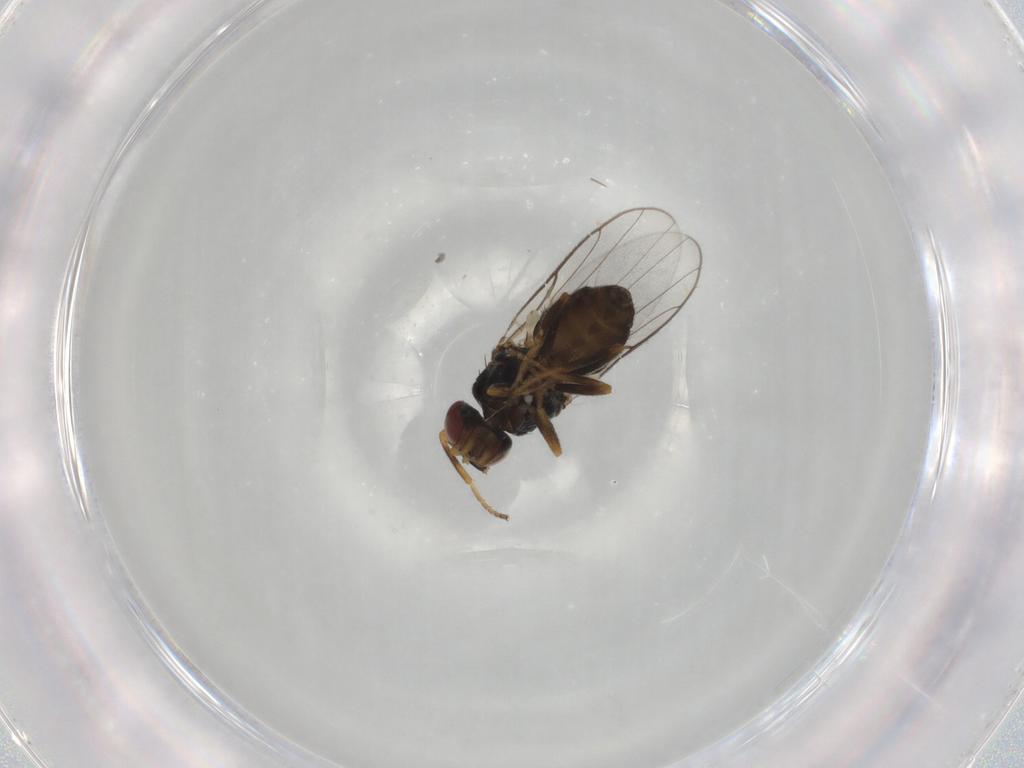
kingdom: Animalia
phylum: Arthropoda
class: Insecta
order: Diptera
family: Chloropidae
